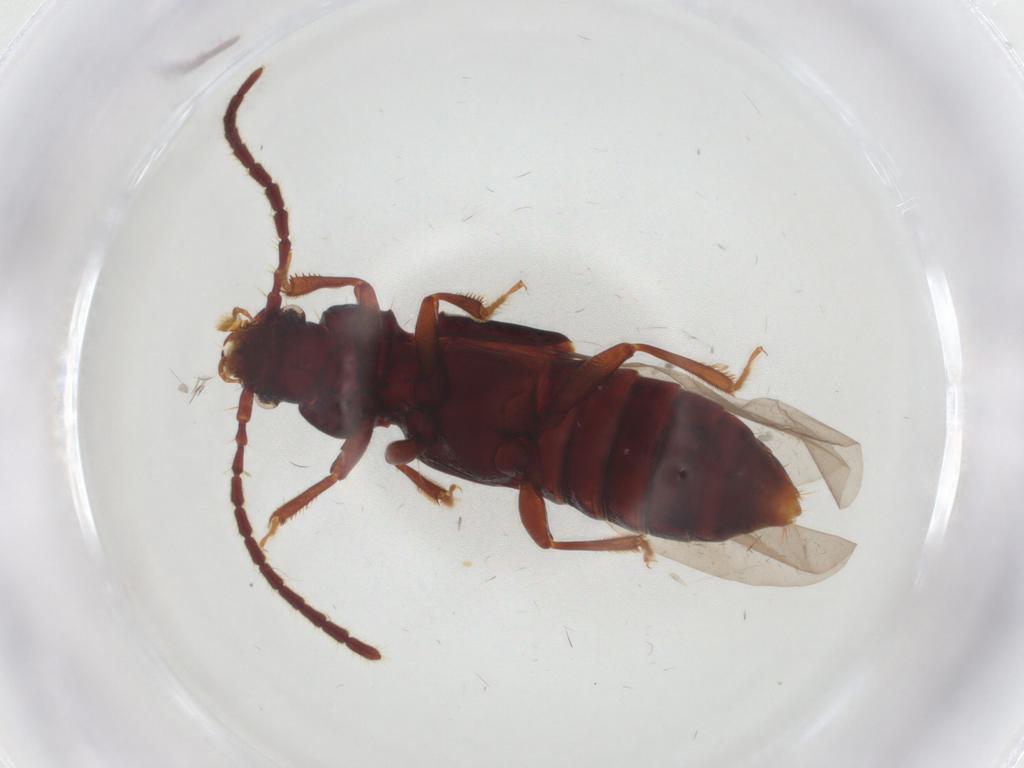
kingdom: Animalia
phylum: Arthropoda
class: Insecta
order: Coleoptera
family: Staphylinidae
